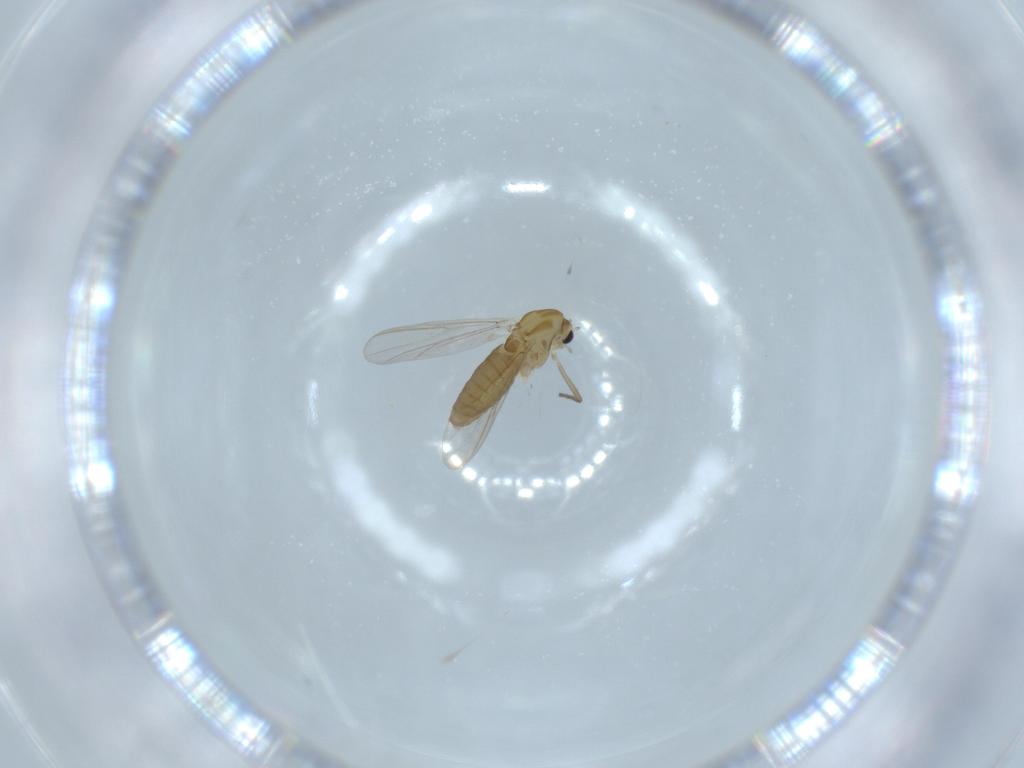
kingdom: Animalia
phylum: Arthropoda
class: Insecta
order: Diptera
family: Chironomidae
